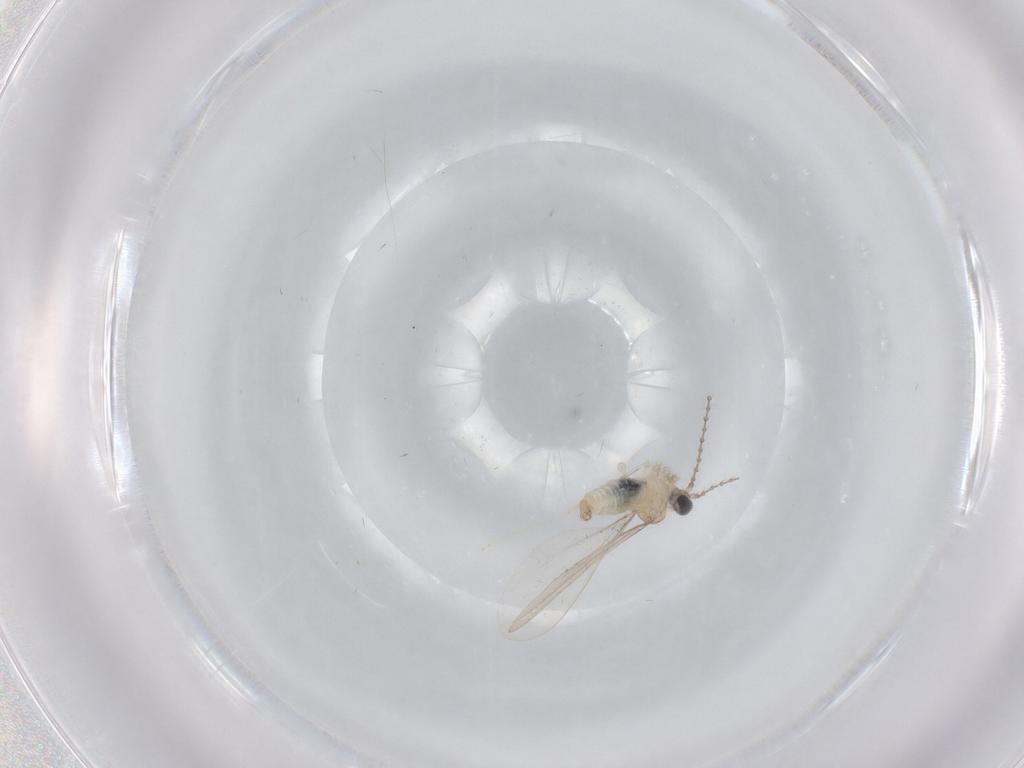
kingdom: Animalia
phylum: Arthropoda
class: Insecta
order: Diptera
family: Cecidomyiidae
